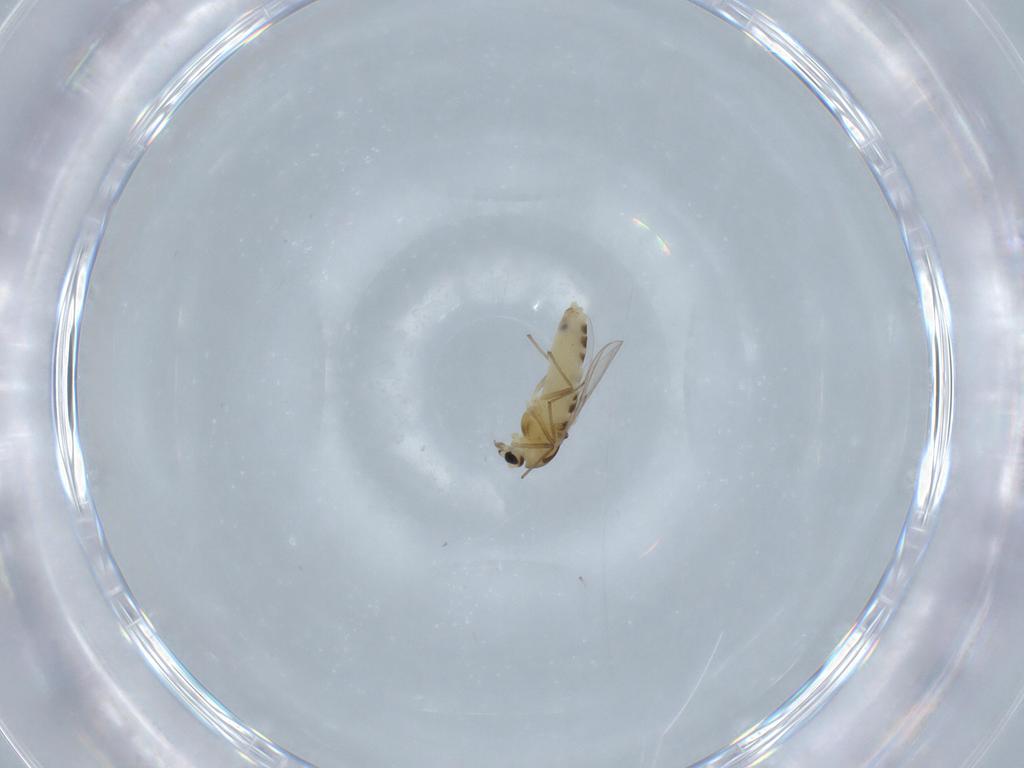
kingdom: Animalia
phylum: Arthropoda
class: Insecta
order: Diptera
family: Chironomidae
